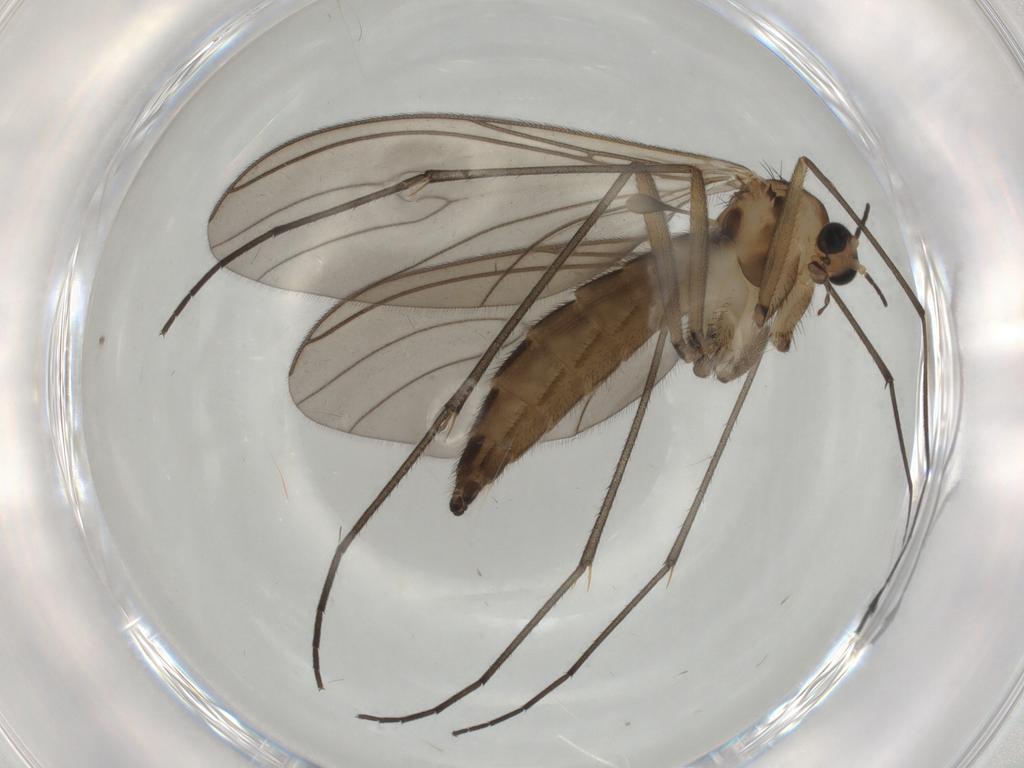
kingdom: Animalia
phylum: Arthropoda
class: Insecta
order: Diptera
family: Sciaridae
